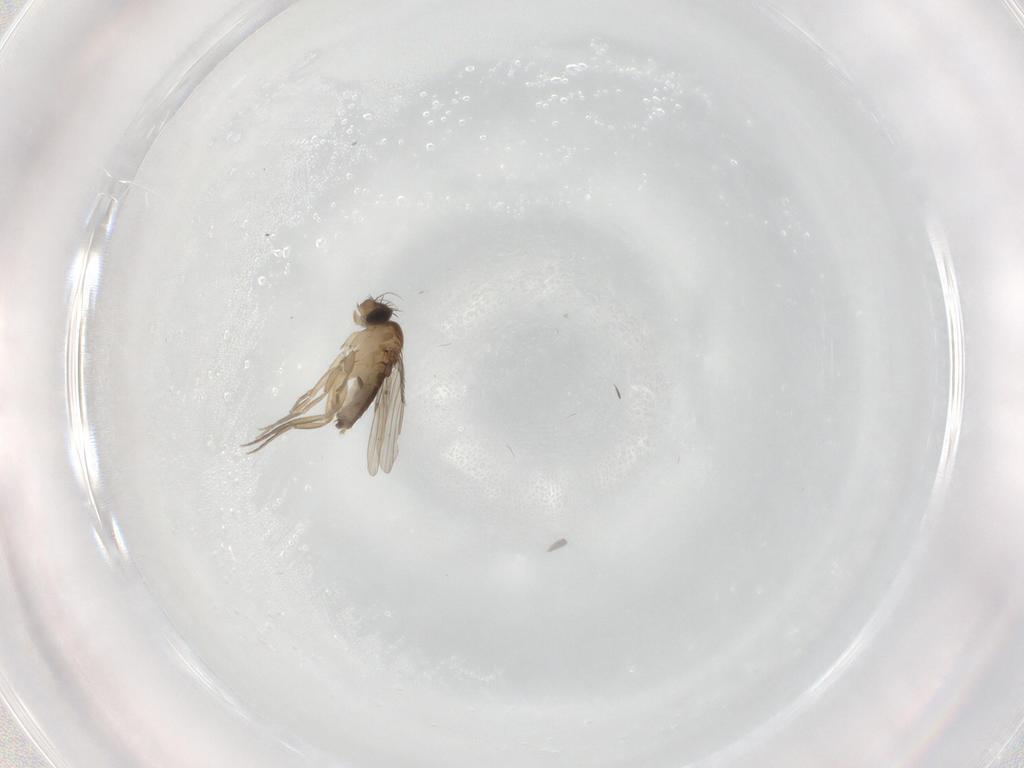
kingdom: Animalia
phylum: Arthropoda
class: Insecta
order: Diptera
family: Phoridae
